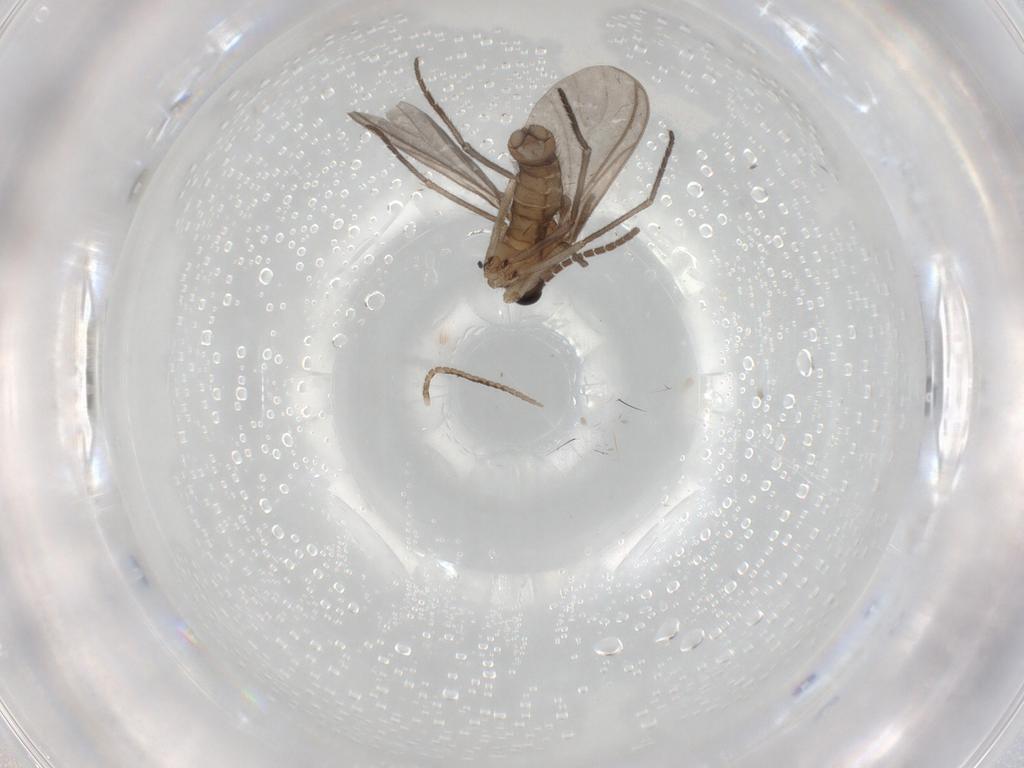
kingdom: Animalia
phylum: Arthropoda
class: Insecta
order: Diptera
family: Sciaridae
